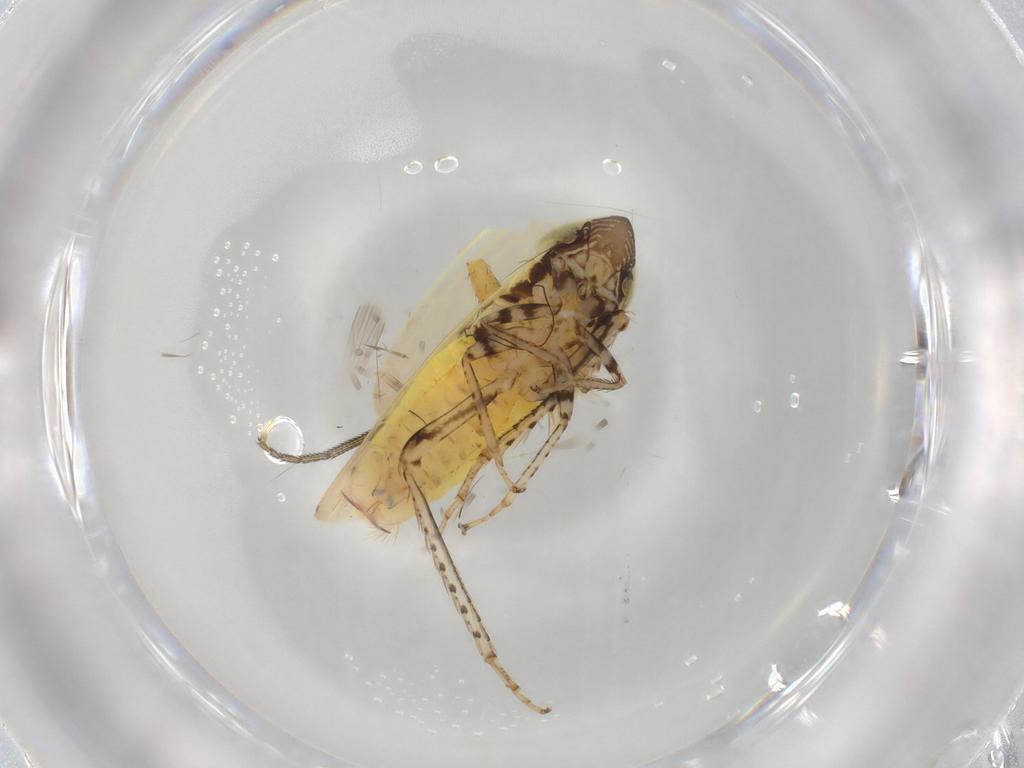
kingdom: Animalia
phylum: Arthropoda
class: Insecta
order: Hemiptera
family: Cicadellidae
